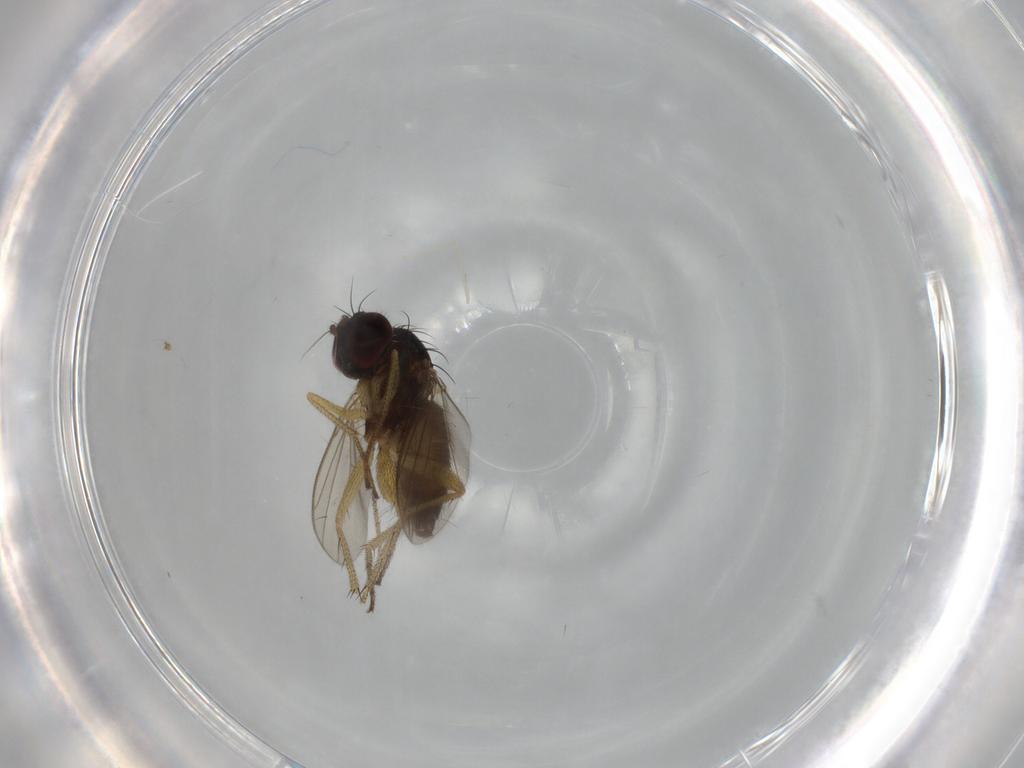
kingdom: Animalia
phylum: Arthropoda
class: Insecta
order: Diptera
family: Dolichopodidae
